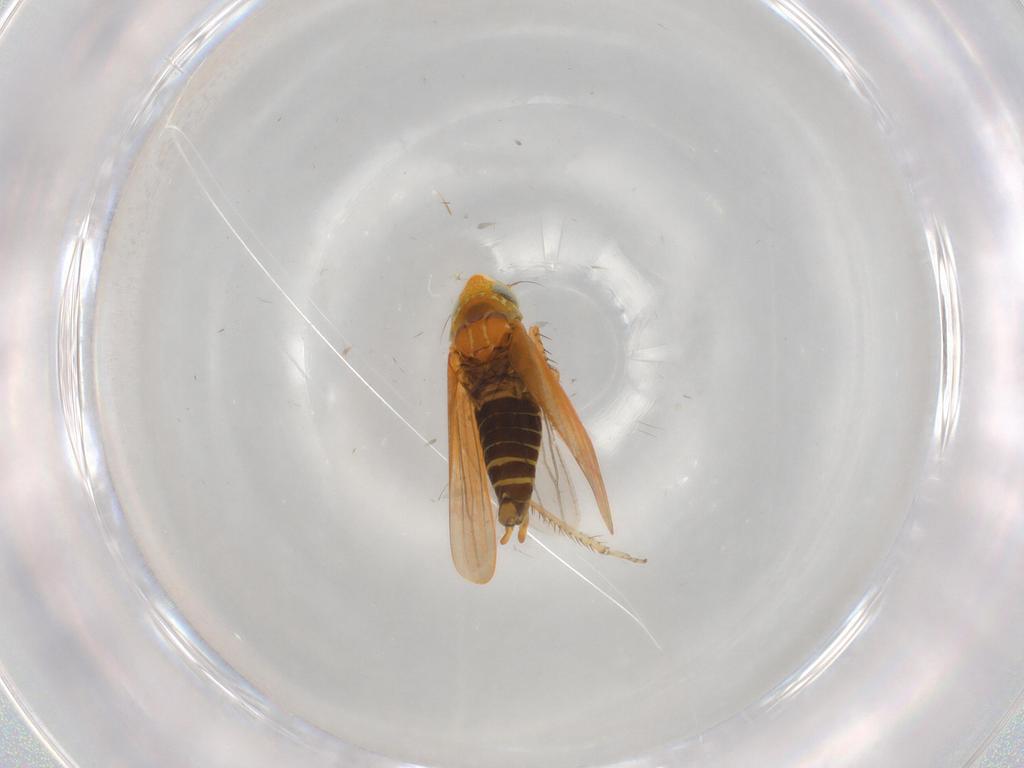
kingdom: Animalia
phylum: Arthropoda
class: Insecta
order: Hemiptera
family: Cicadellidae
